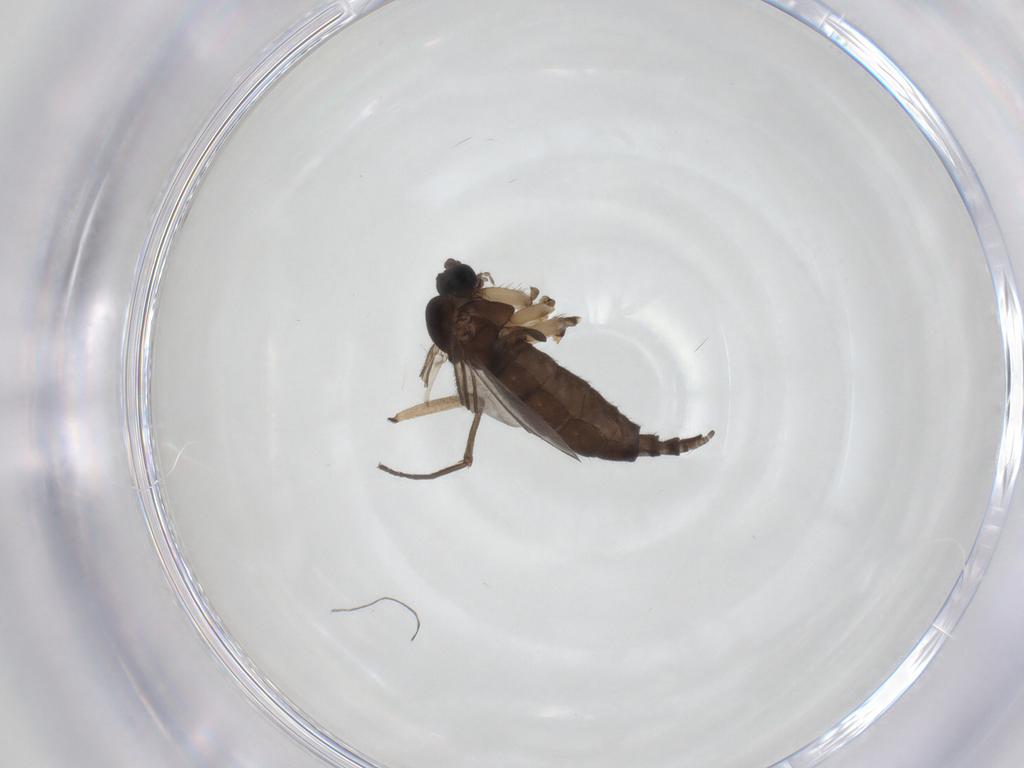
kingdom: Animalia
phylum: Arthropoda
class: Insecta
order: Diptera
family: Sciaridae
